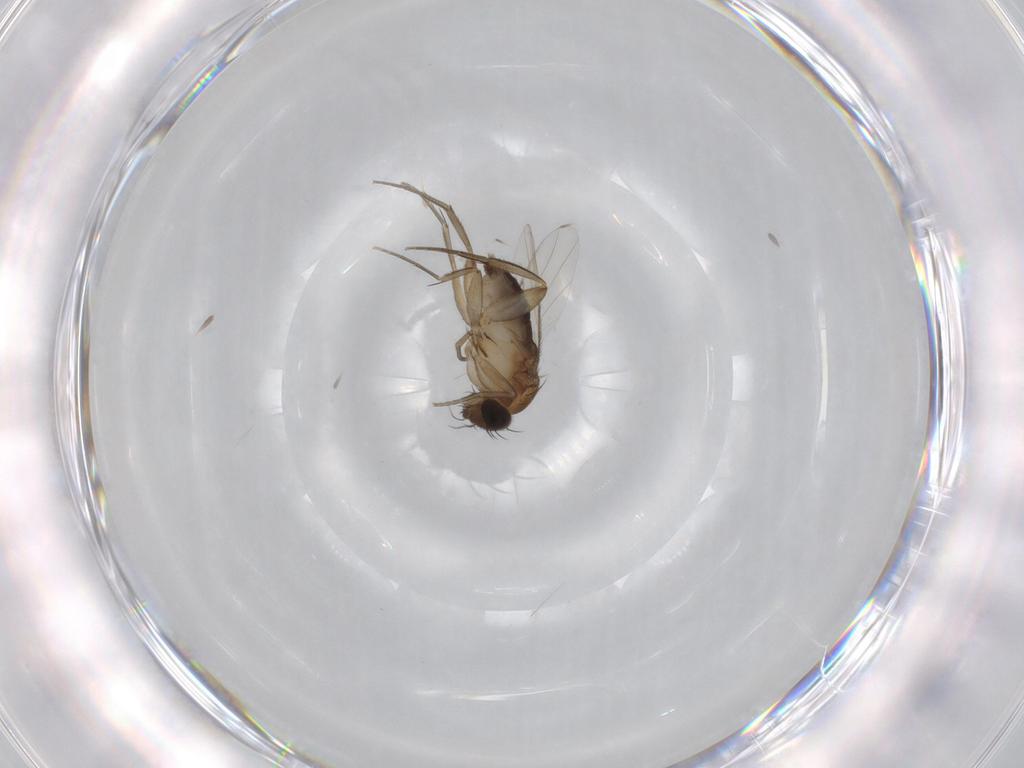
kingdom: Animalia
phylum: Arthropoda
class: Insecta
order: Diptera
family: Phoridae
